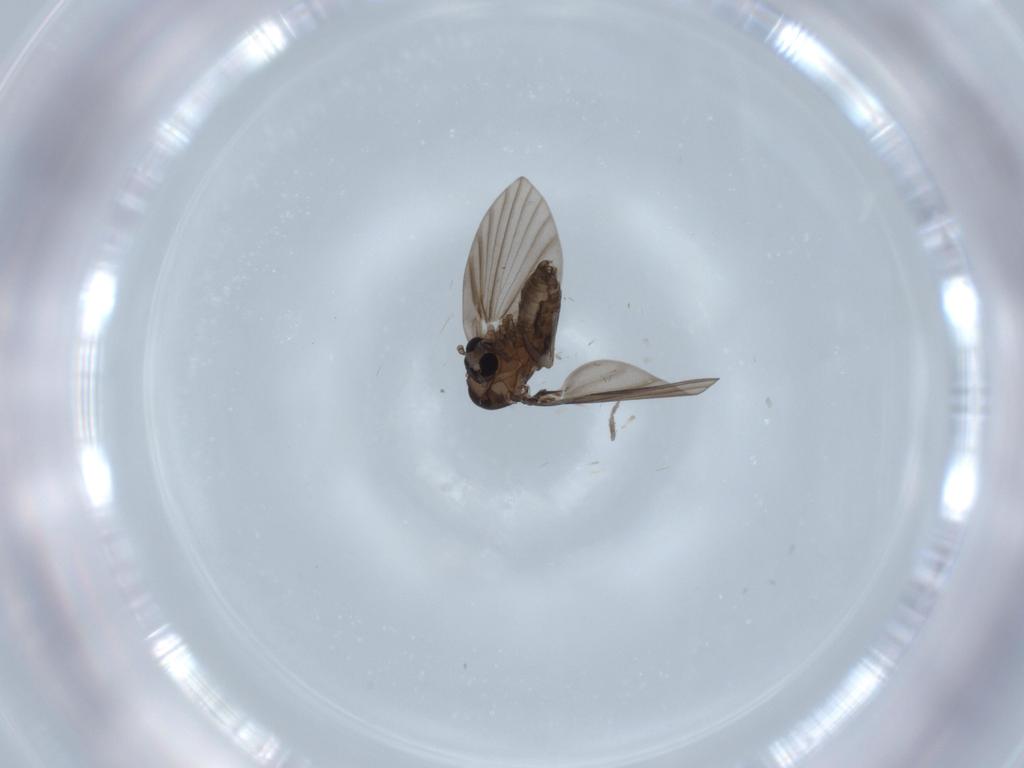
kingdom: Animalia
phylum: Arthropoda
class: Insecta
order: Diptera
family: Psychodidae
